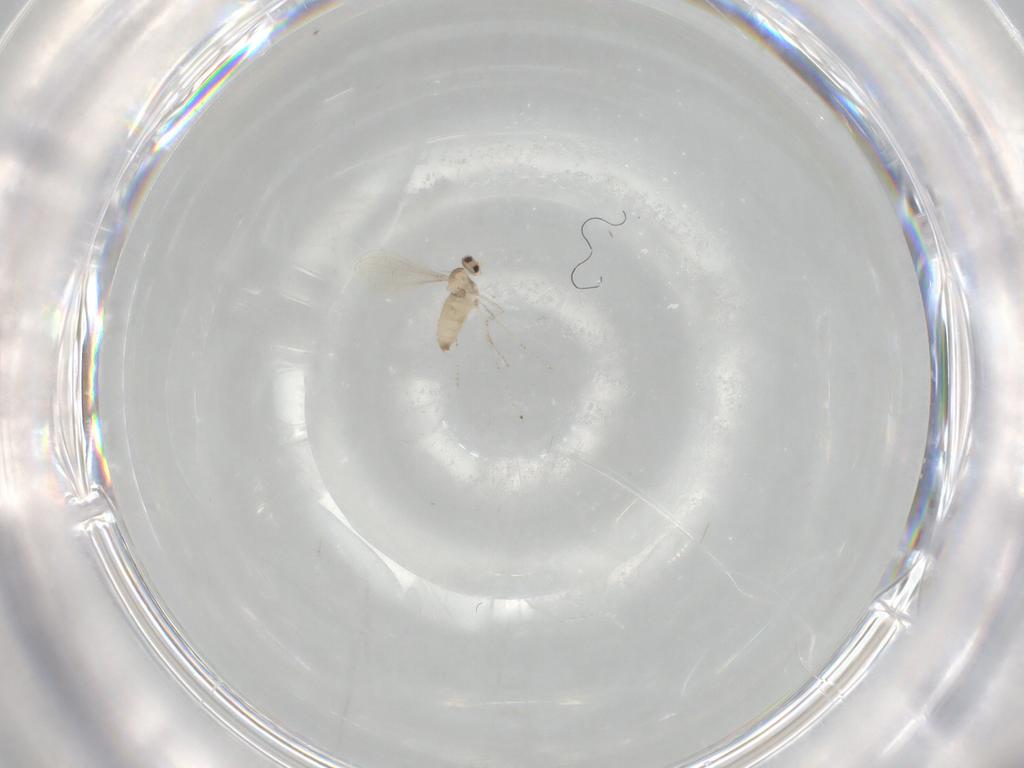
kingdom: Animalia
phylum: Arthropoda
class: Insecta
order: Diptera
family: Cecidomyiidae
